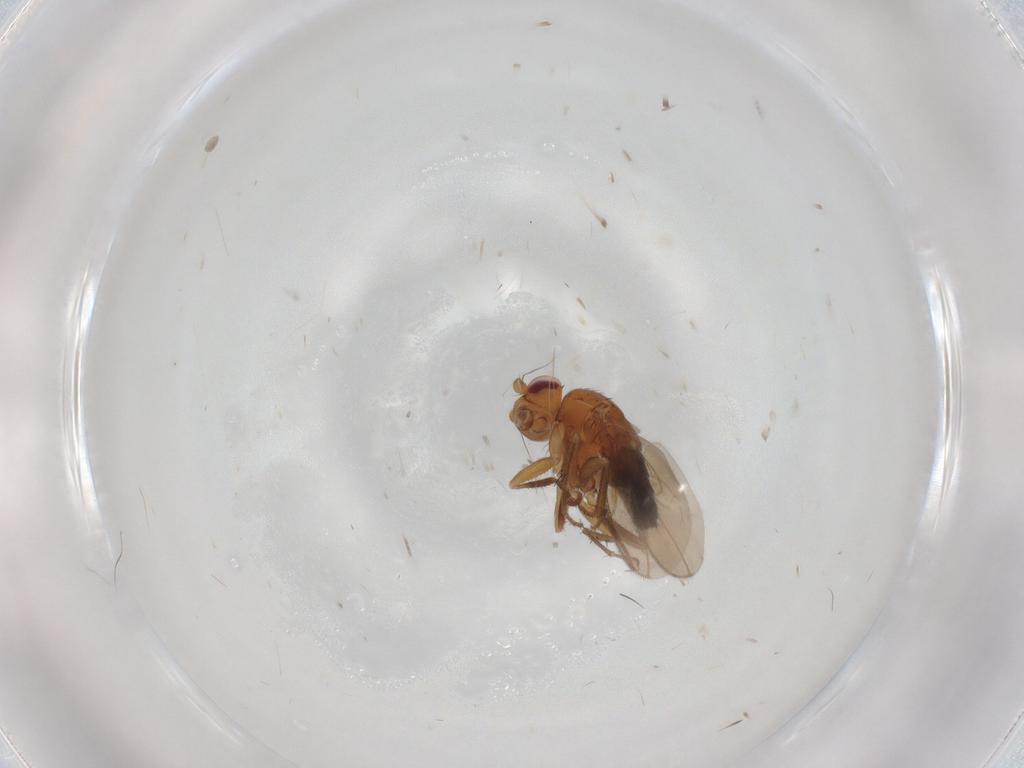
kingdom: Animalia
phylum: Arthropoda
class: Insecta
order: Diptera
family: Sphaeroceridae
